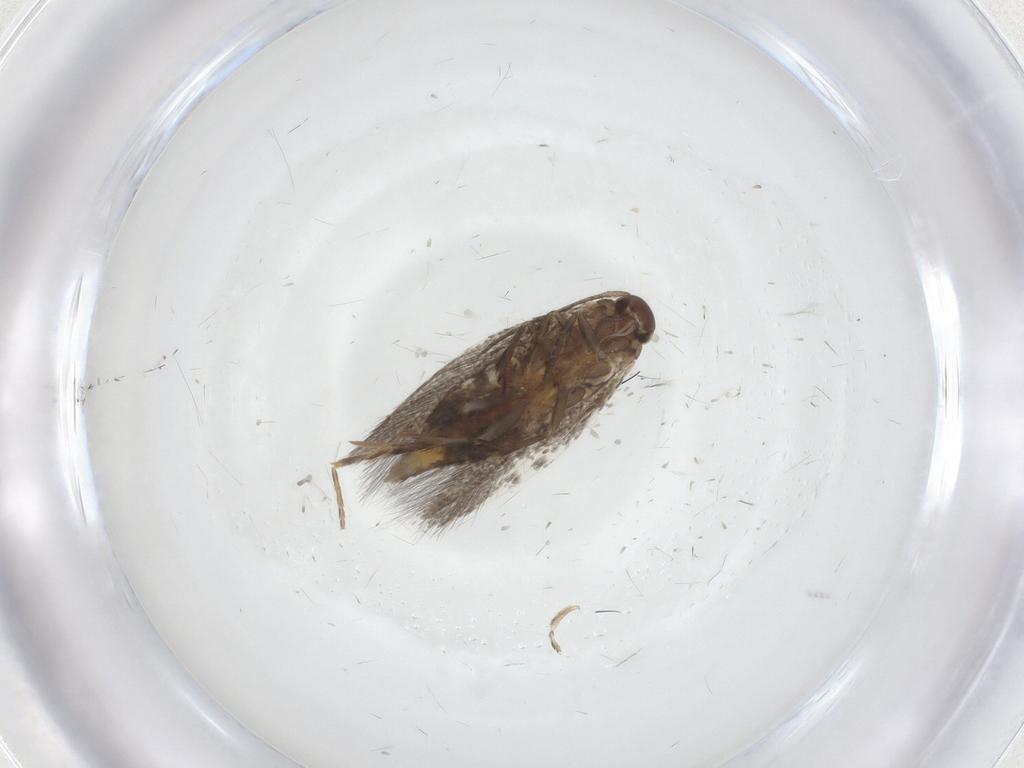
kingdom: Animalia
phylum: Arthropoda
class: Insecta
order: Lepidoptera
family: Elachistidae
